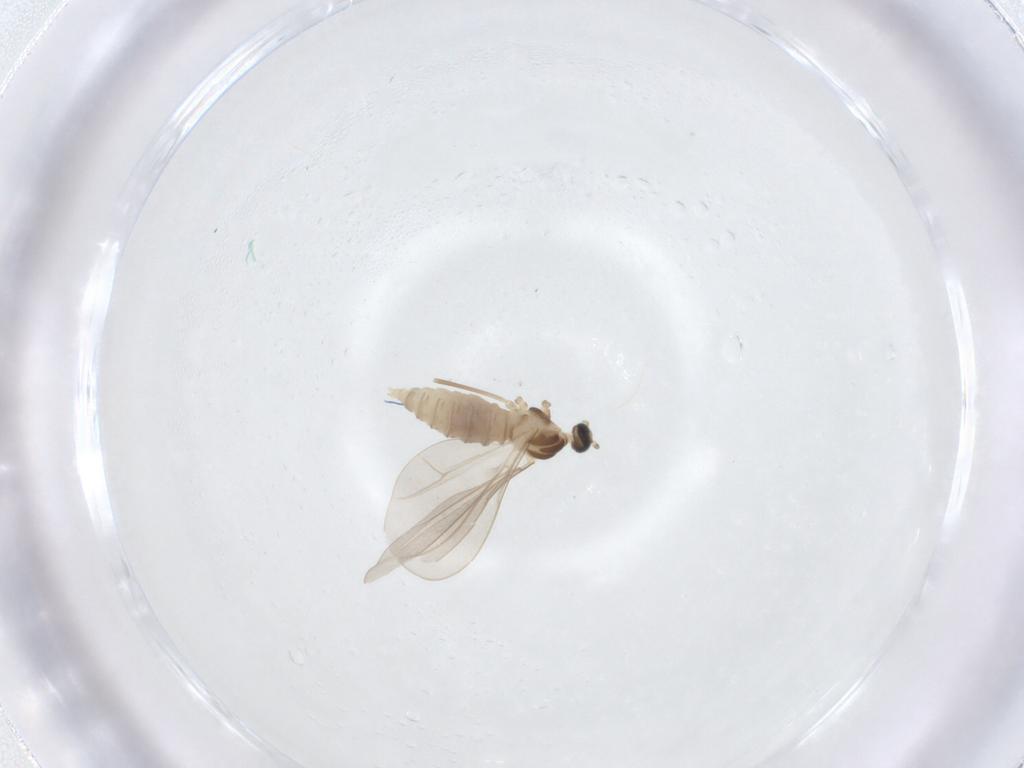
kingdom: Animalia
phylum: Arthropoda
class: Insecta
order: Diptera
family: Cecidomyiidae
